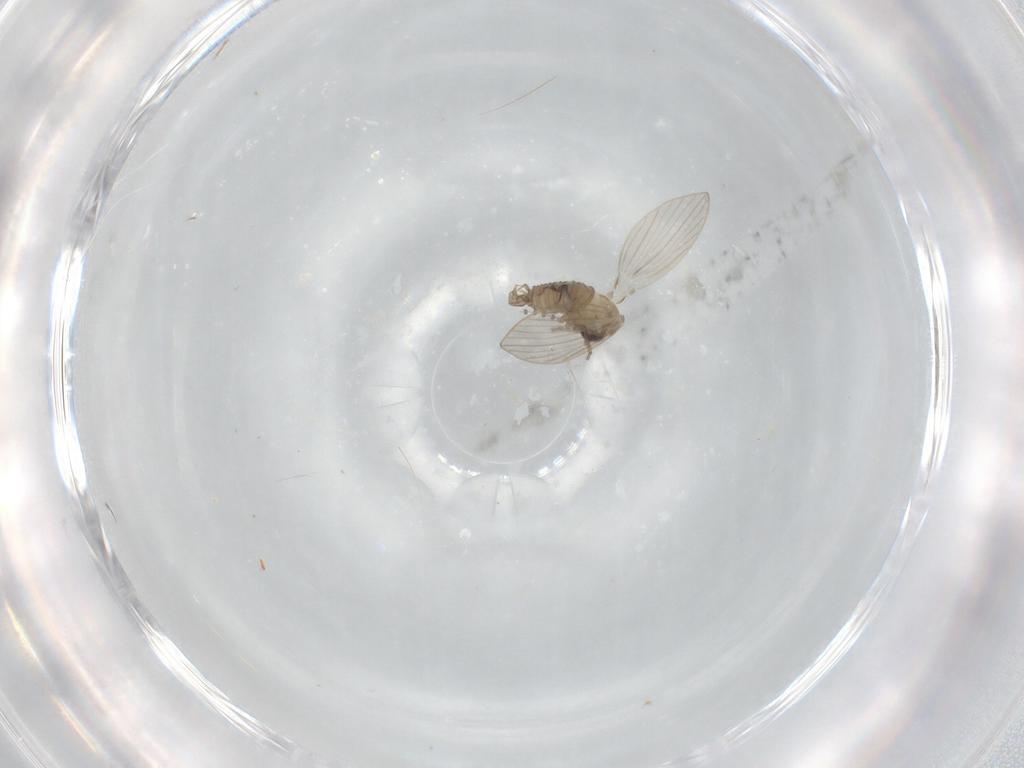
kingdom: Animalia
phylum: Arthropoda
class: Insecta
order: Diptera
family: Psychodidae
